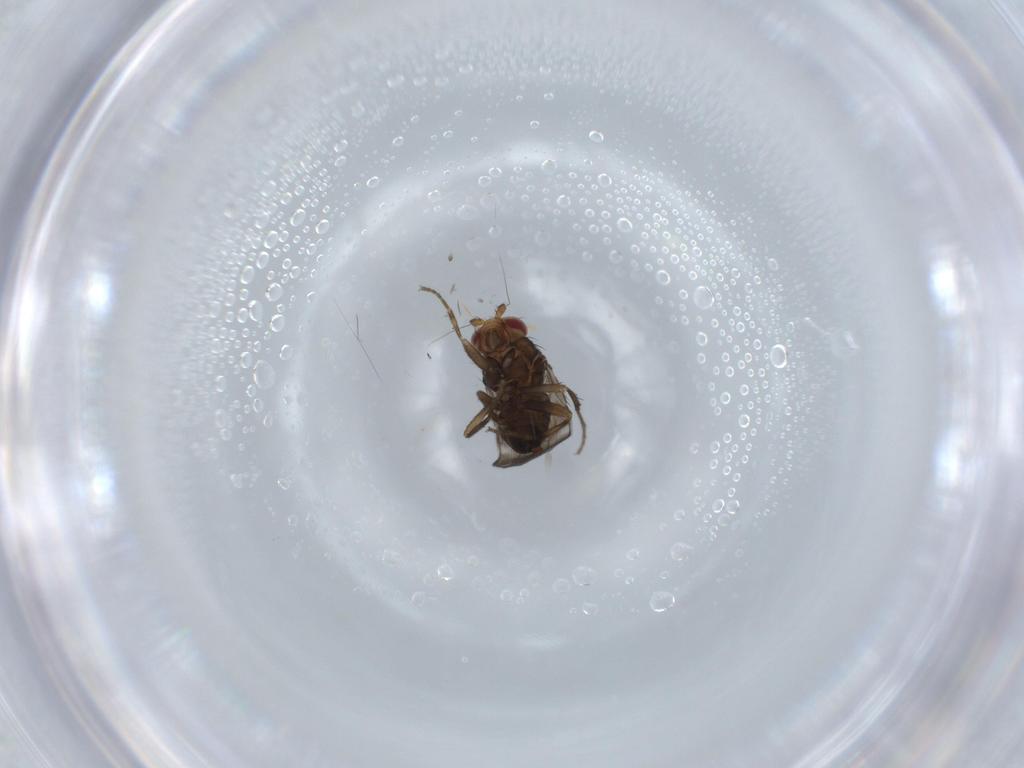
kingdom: Animalia
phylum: Arthropoda
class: Insecta
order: Diptera
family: Sphaeroceridae
